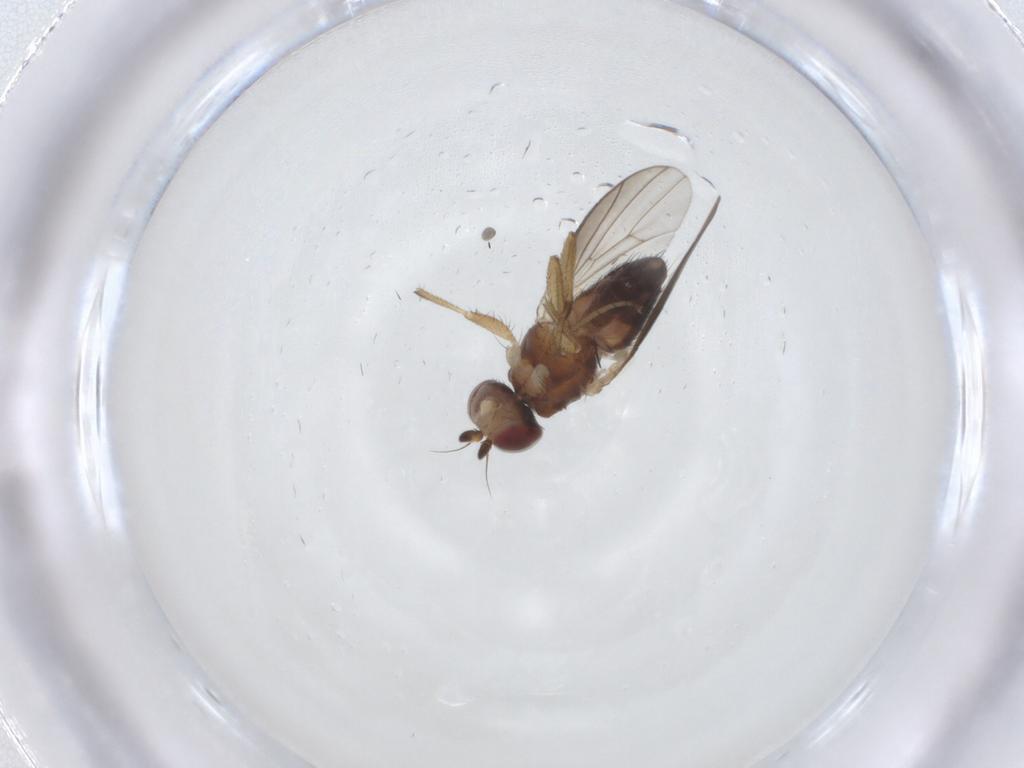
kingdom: Animalia
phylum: Arthropoda
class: Insecta
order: Diptera
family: Heleomyzidae
